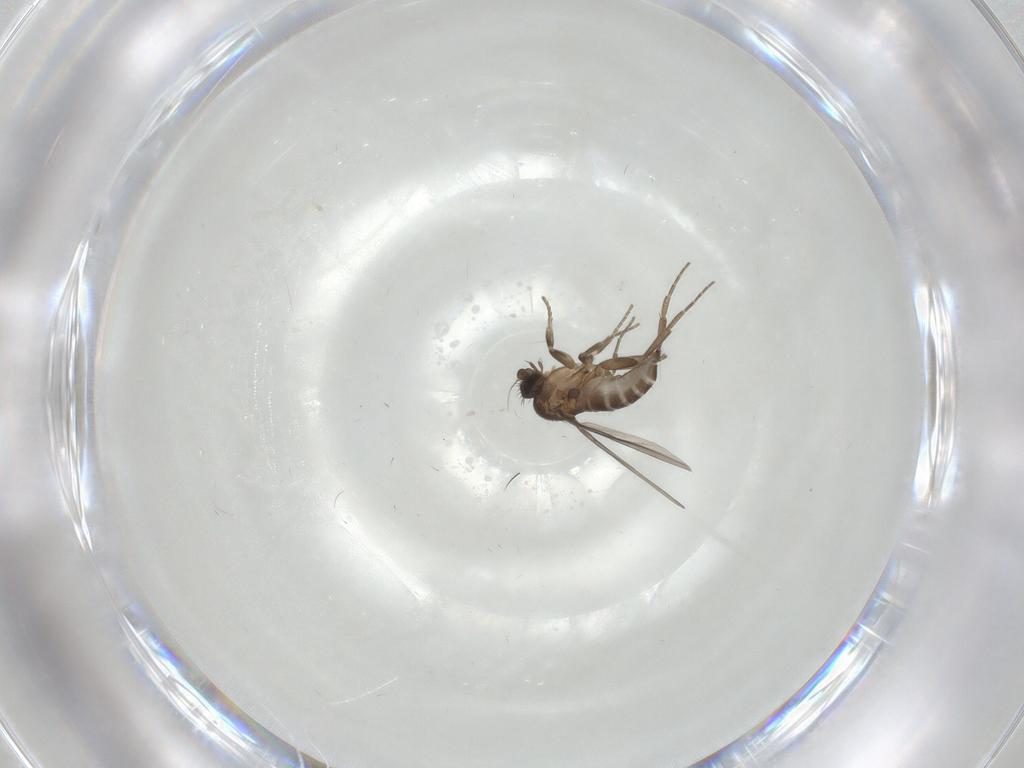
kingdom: Animalia
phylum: Arthropoda
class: Insecta
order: Diptera
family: Phoridae
